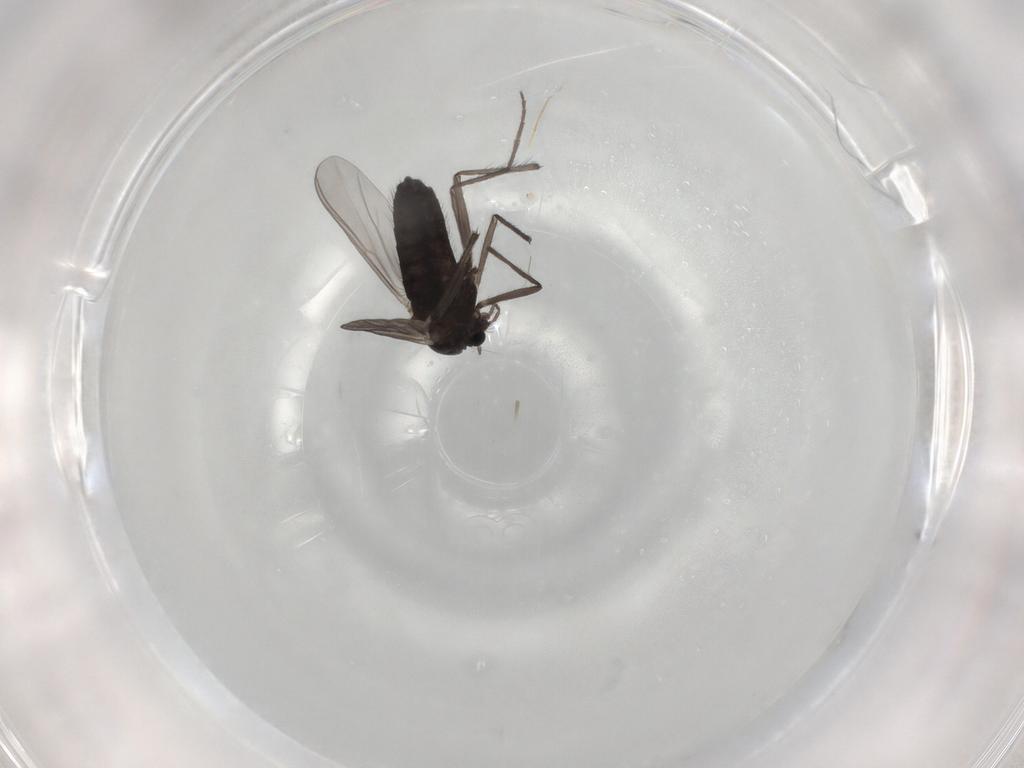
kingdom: Animalia
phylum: Arthropoda
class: Insecta
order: Diptera
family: Chironomidae
